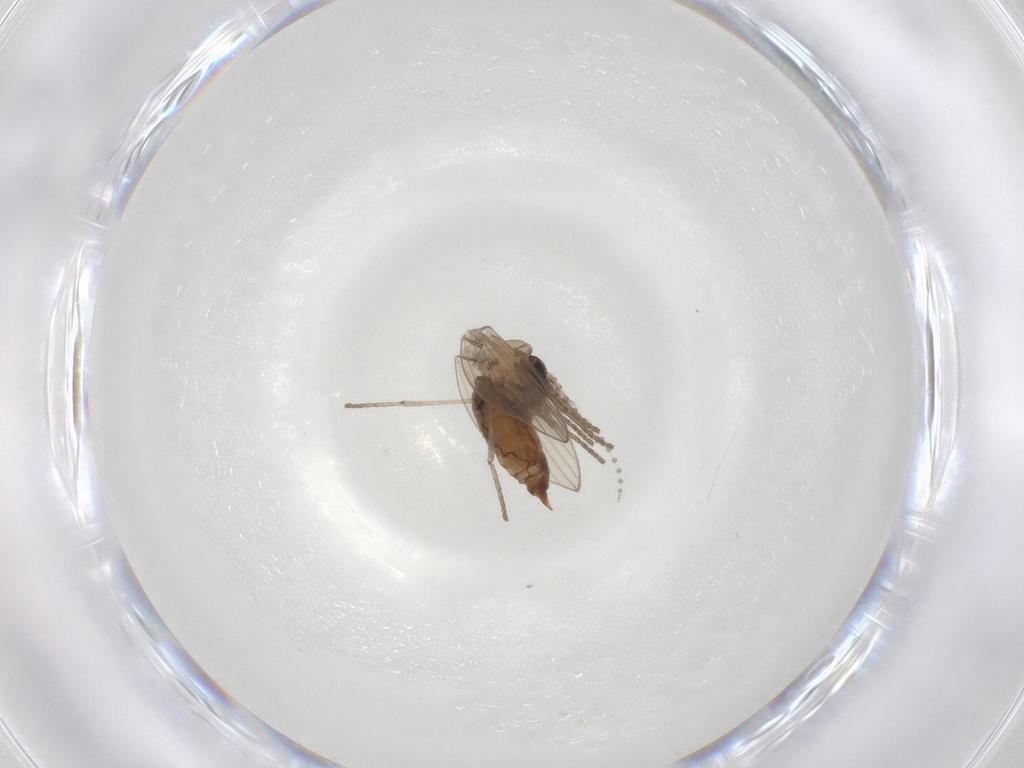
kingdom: Animalia
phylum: Arthropoda
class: Insecta
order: Diptera
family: Psychodidae
